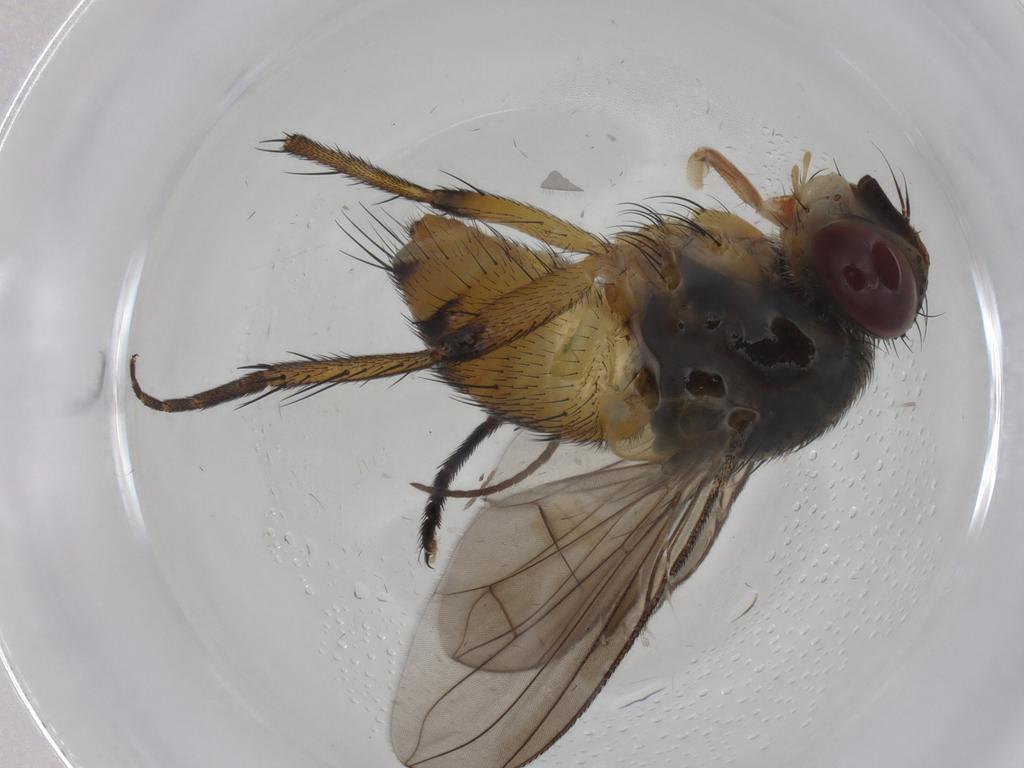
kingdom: Animalia
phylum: Arthropoda
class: Insecta
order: Diptera
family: Mycetophilidae
